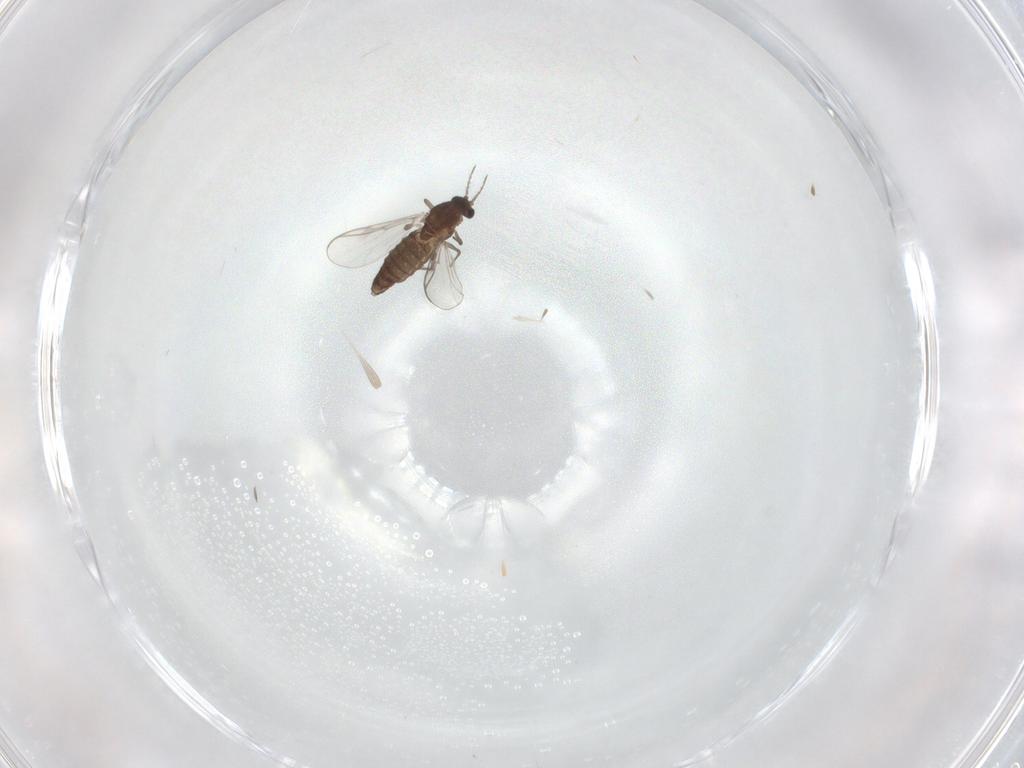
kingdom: Animalia
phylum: Arthropoda
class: Insecta
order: Diptera
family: Chironomidae
